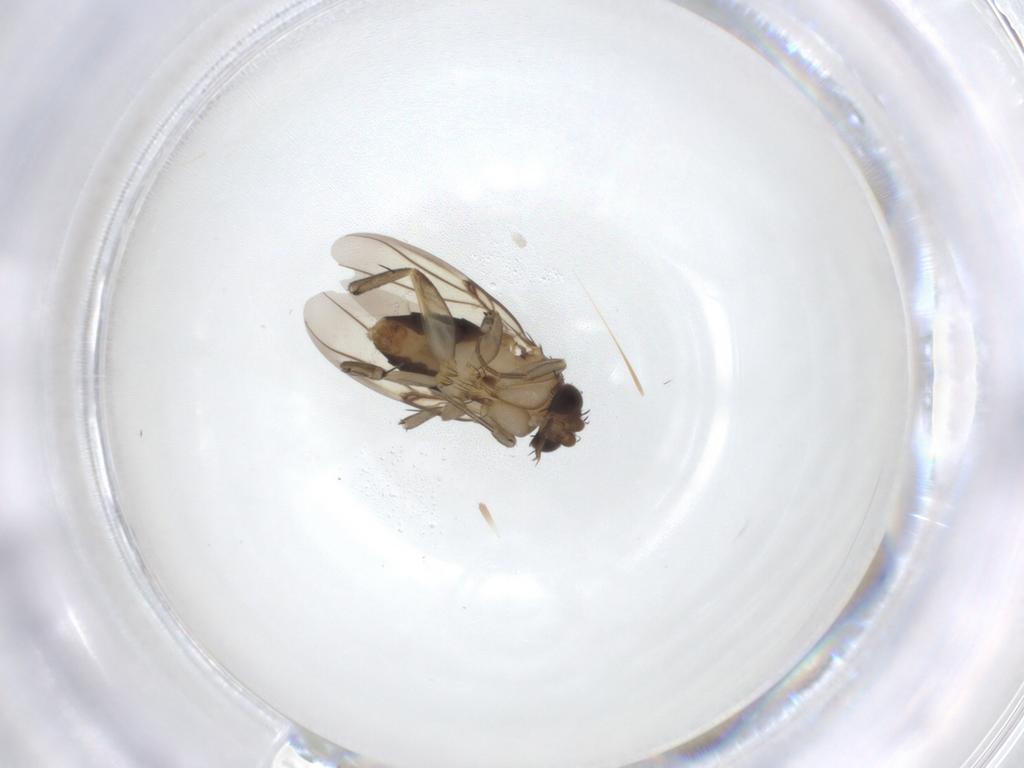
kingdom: Animalia
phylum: Arthropoda
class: Insecta
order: Diptera
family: Phoridae
